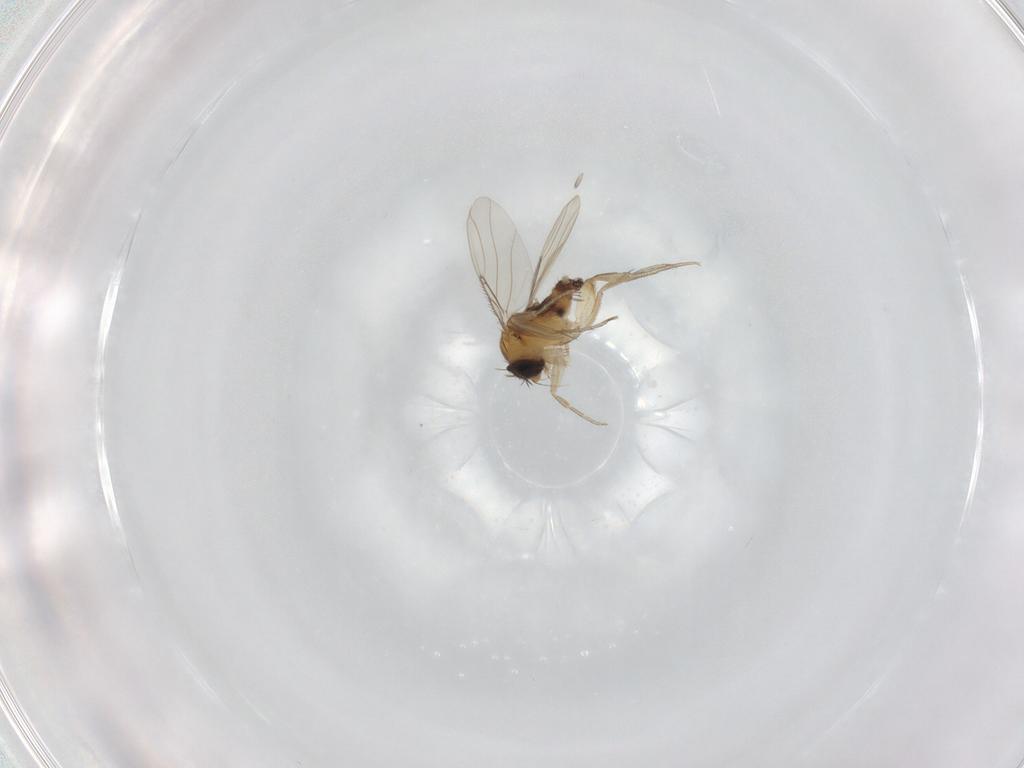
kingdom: Animalia
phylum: Arthropoda
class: Insecta
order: Diptera
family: Phoridae
